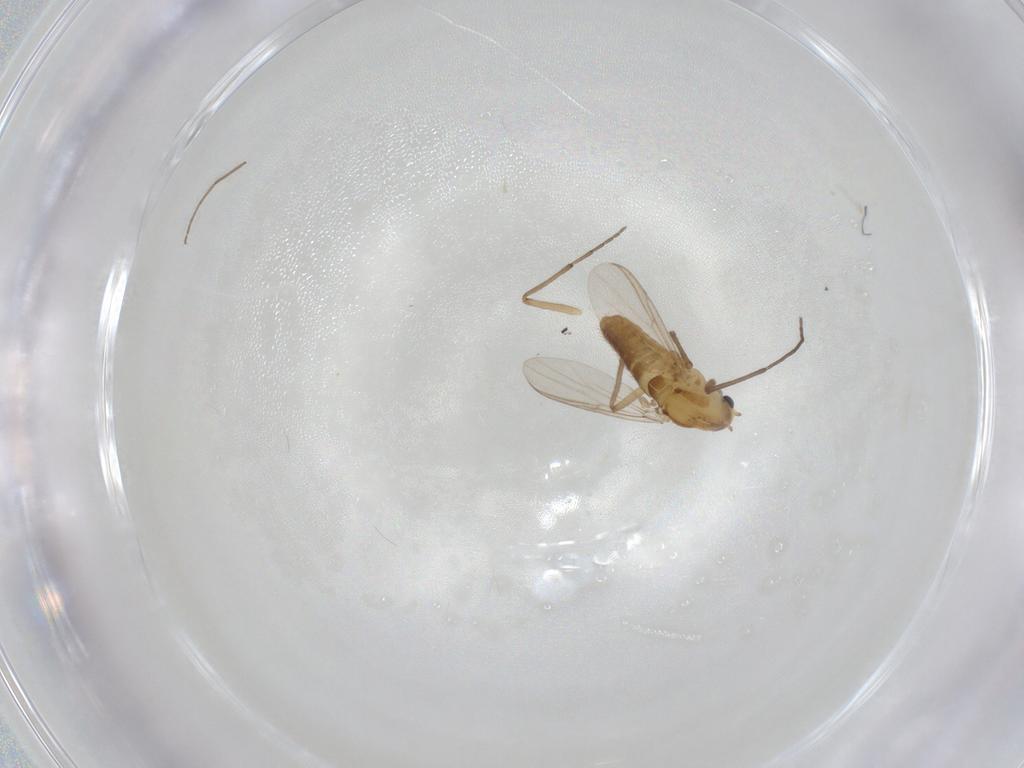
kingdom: Animalia
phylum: Arthropoda
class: Insecta
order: Diptera
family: Chironomidae
